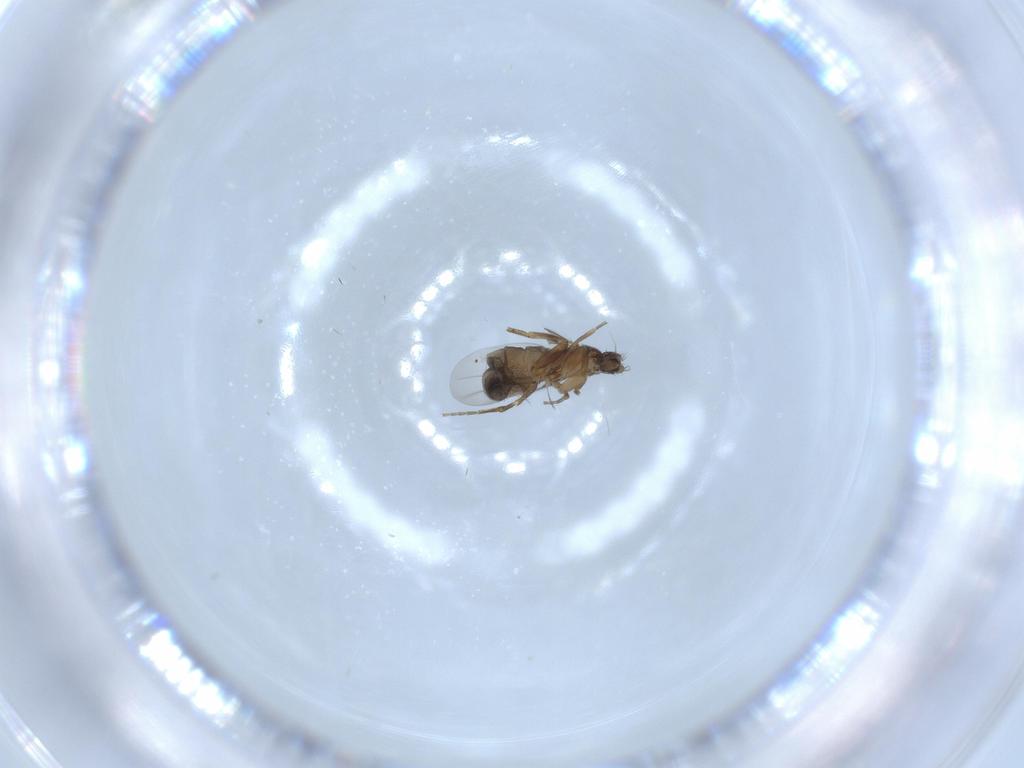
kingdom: Animalia
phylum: Arthropoda
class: Insecta
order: Diptera
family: Phoridae
